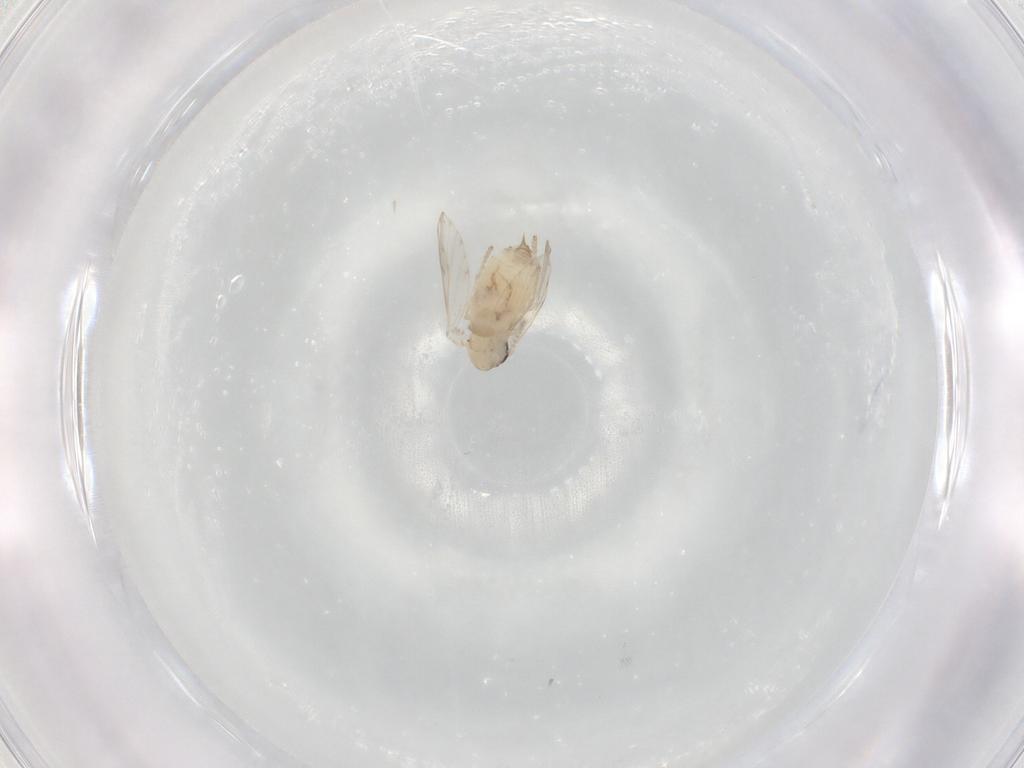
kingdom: Animalia
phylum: Arthropoda
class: Insecta
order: Diptera
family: Psychodidae
